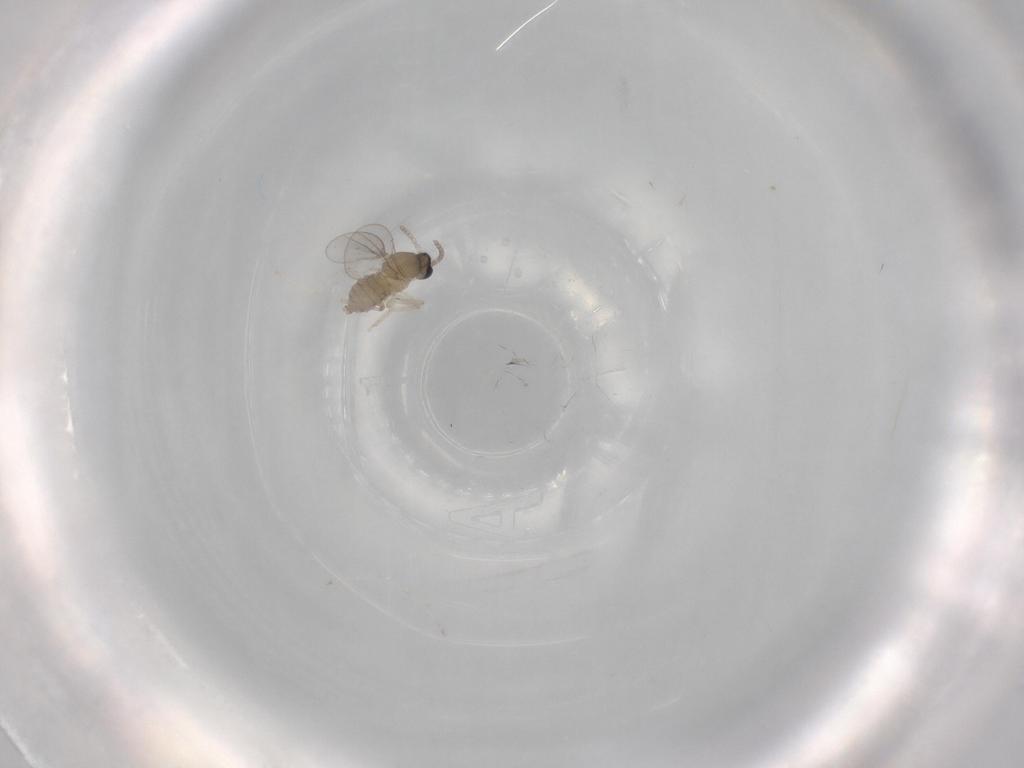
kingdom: Animalia
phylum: Arthropoda
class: Insecta
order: Diptera
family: Cecidomyiidae
